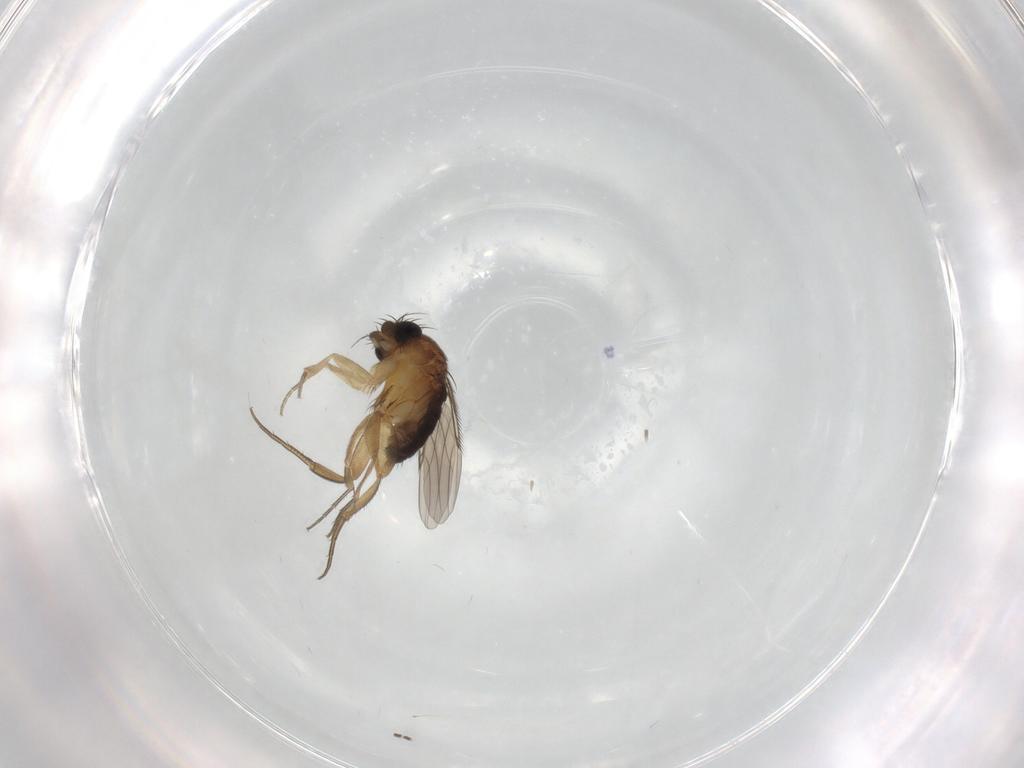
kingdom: Animalia
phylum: Arthropoda
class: Insecta
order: Diptera
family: Phoridae
